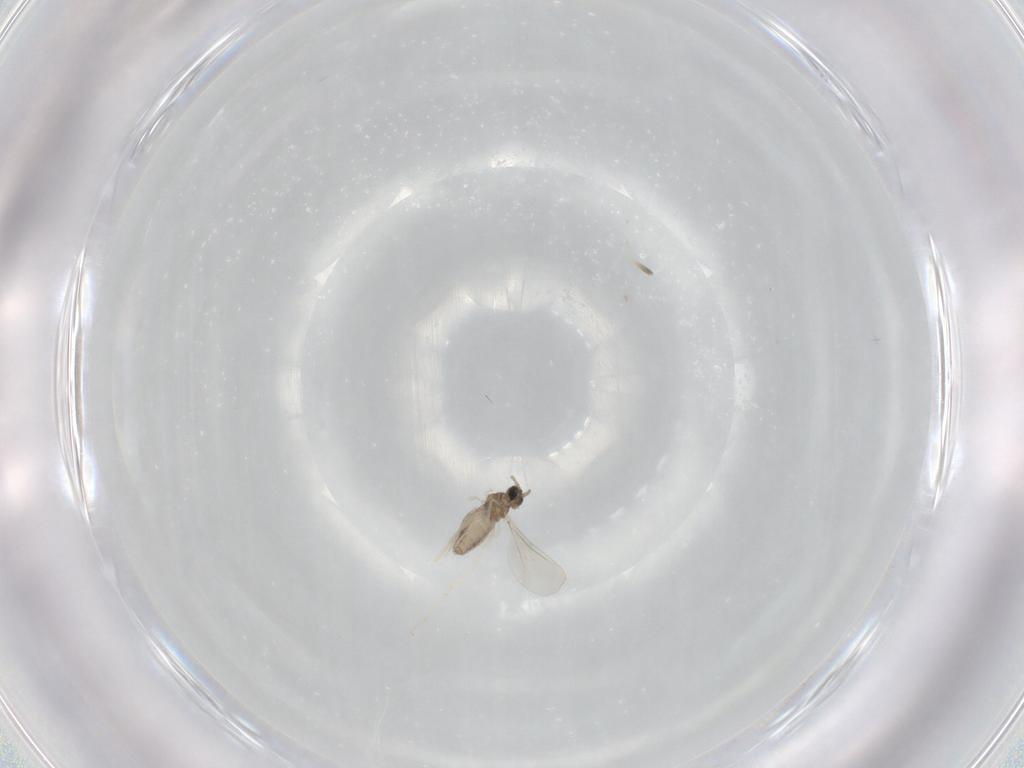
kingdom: Animalia
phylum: Arthropoda
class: Insecta
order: Diptera
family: Cecidomyiidae
